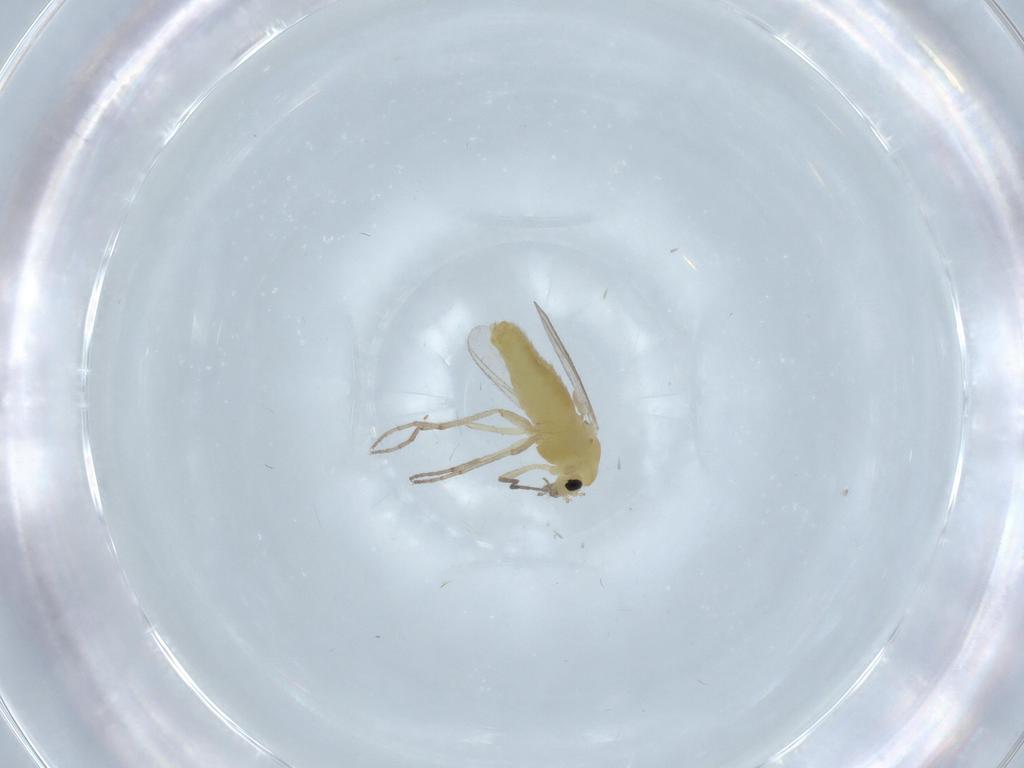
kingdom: Animalia
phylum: Arthropoda
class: Insecta
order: Diptera
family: Chironomidae
